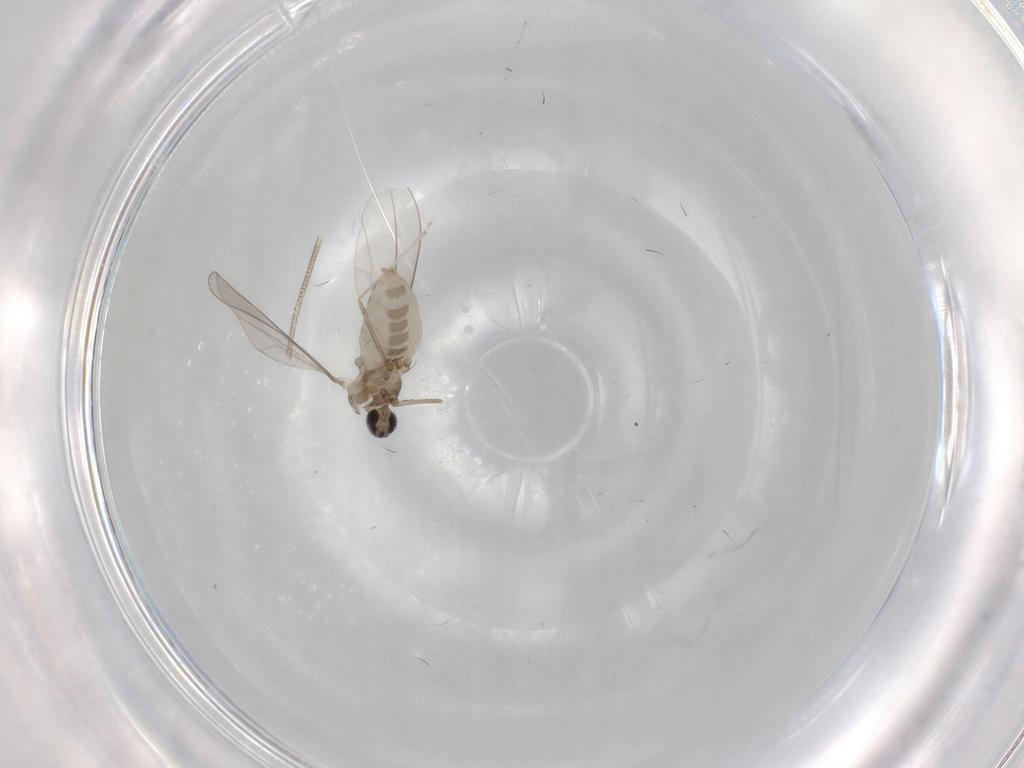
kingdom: Animalia
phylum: Arthropoda
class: Insecta
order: Diptera
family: Cecidomyiidae
